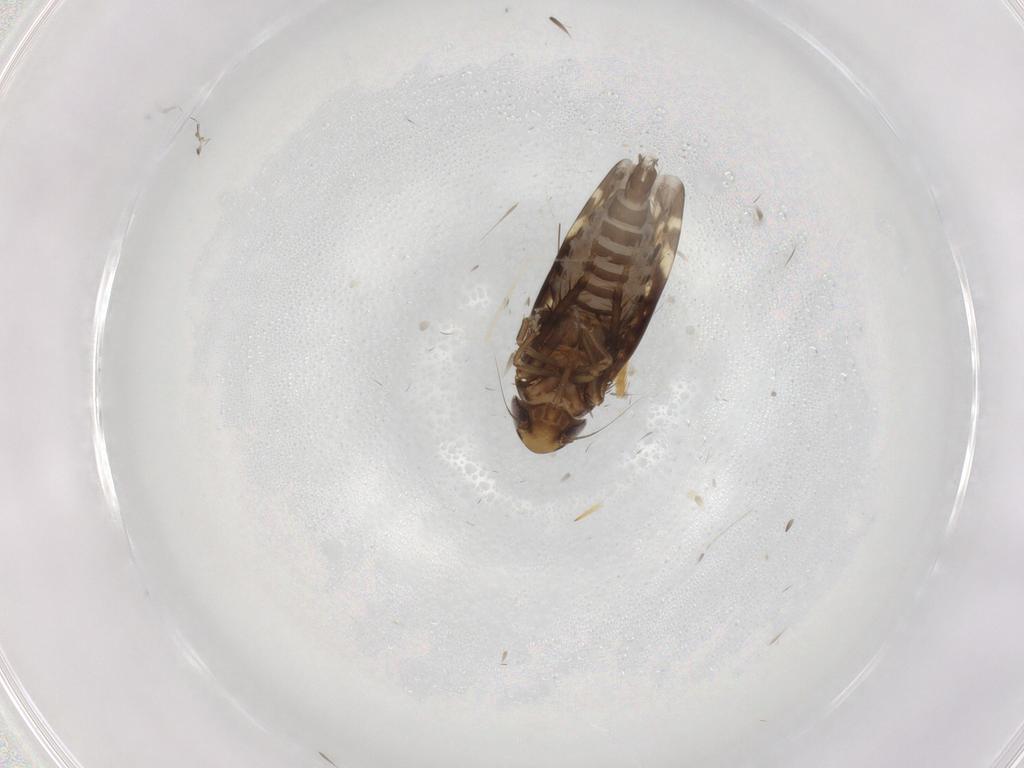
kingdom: Animalia
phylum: Arthropoda
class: Insecta
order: Hemiptera
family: Cicadellidae
